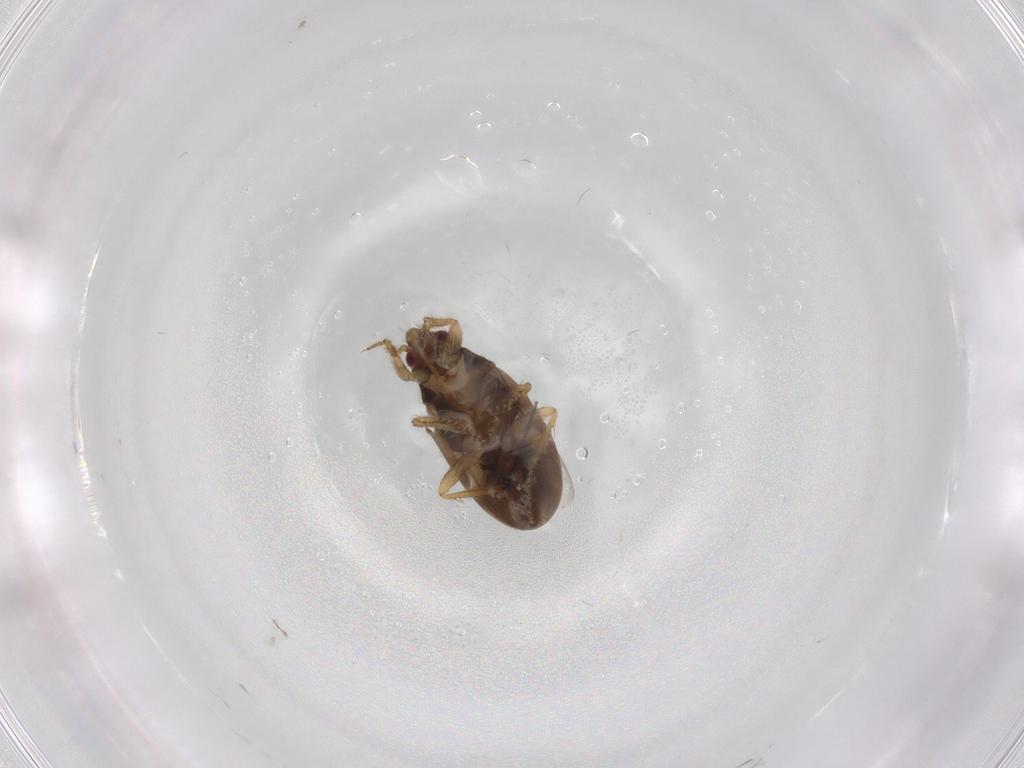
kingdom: Animalia
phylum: Arthropoda
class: Insecta
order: Hemiptera
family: Ceratocombidae
